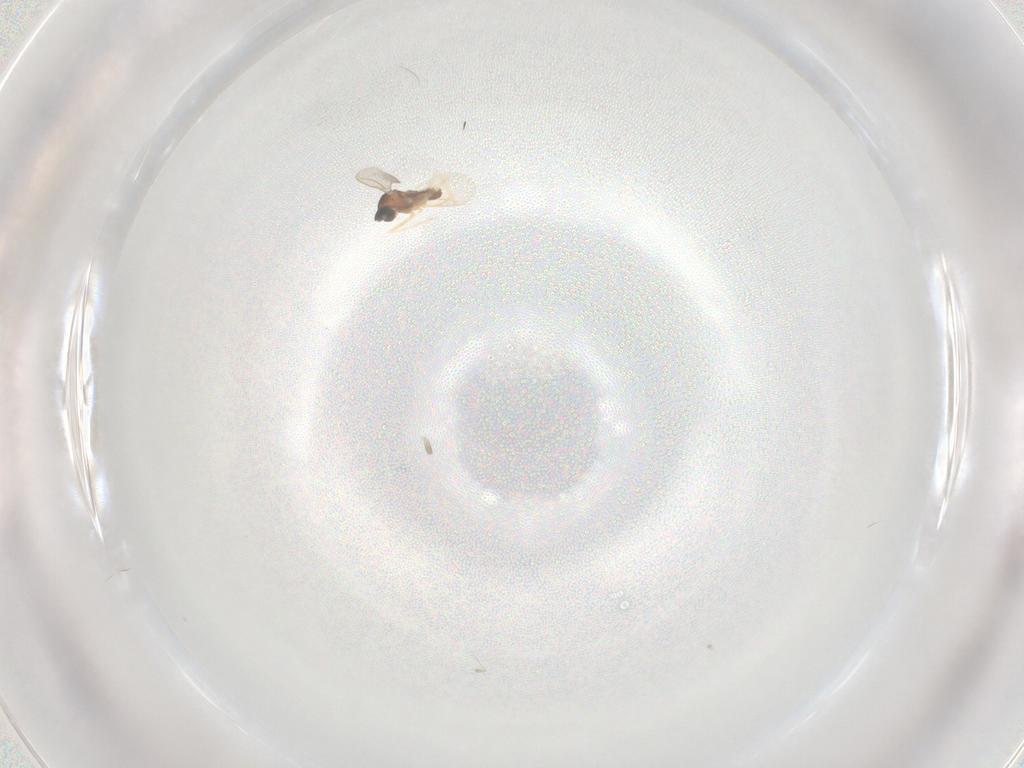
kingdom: Animalia
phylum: Arthropoda
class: Insecta
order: Diptera
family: Cecidomyiidae
